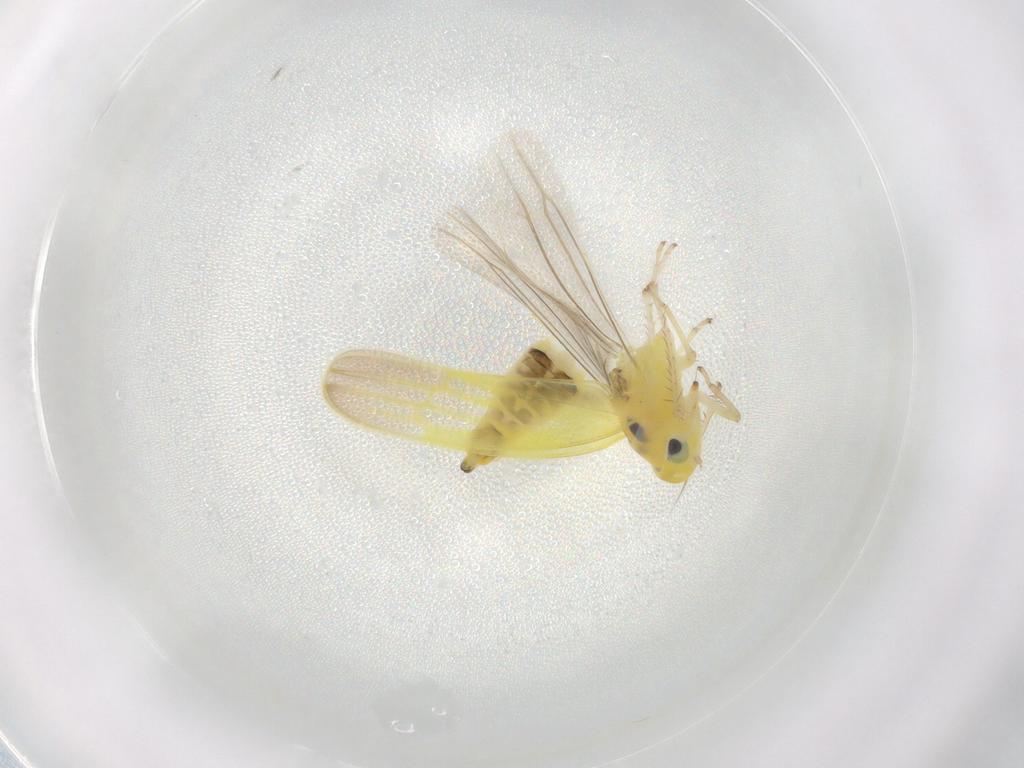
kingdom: Animalia
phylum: Arthropoda
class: Insecta
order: Hemiptera
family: Cicadellidae
